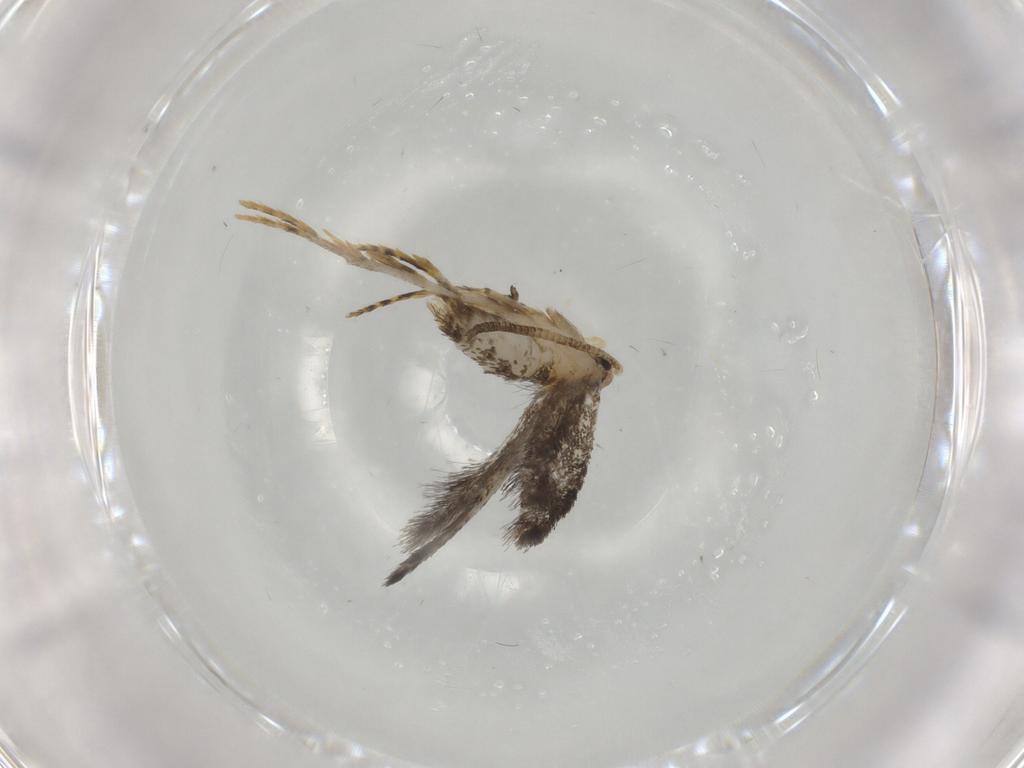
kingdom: Animalia
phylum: Arthropoda
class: Insecta
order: Lepidoptera
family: Tineidae
